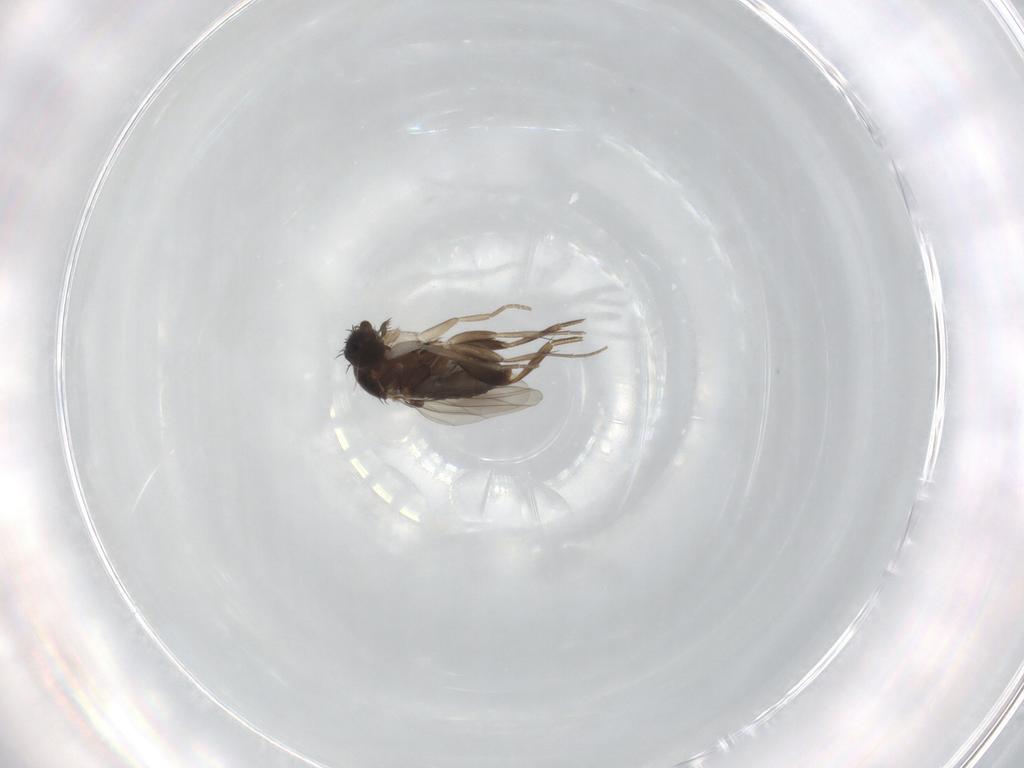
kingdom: Animalia
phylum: Arthropoda
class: Insecta
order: Diptera
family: Phoridae
